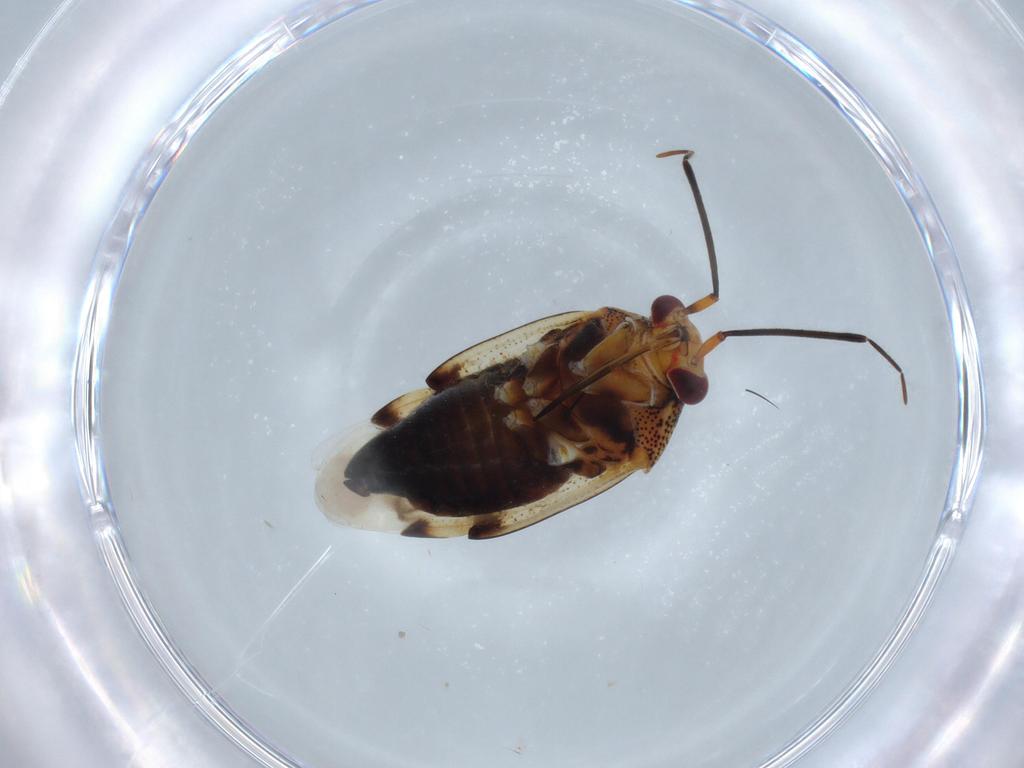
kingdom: Animalia
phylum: Arthropoda
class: Insecta
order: Hemiptera
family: Miridae
